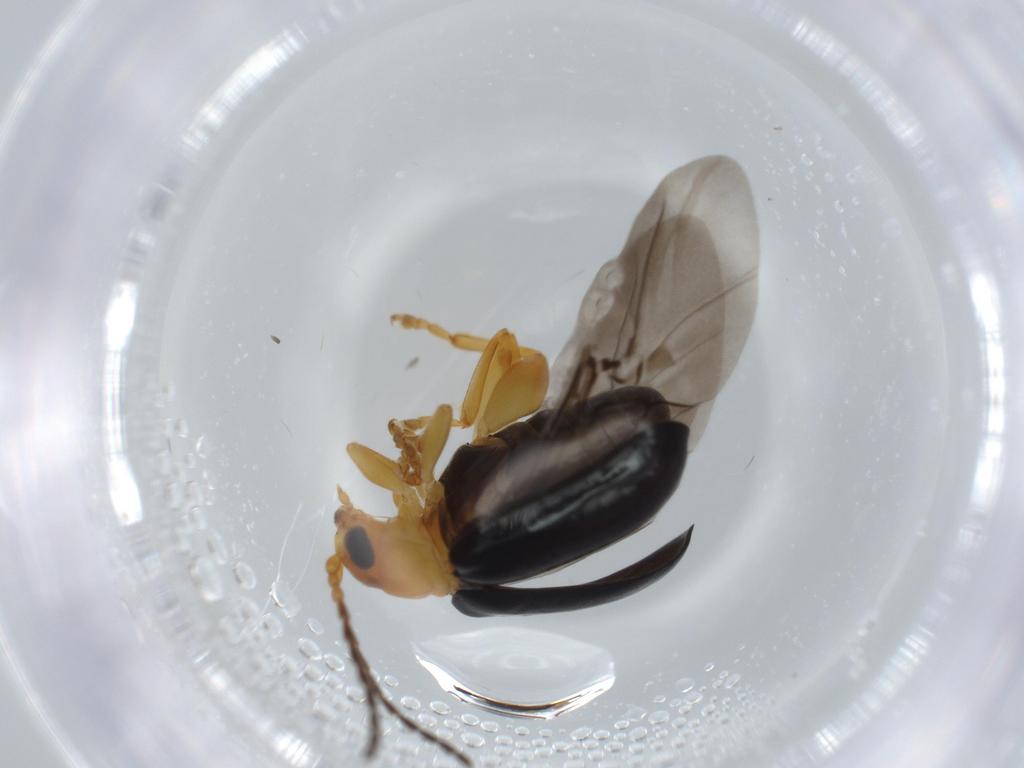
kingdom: Animalia
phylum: Arthropoda
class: Insecta
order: Coleoptera
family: Chrysomelidae
